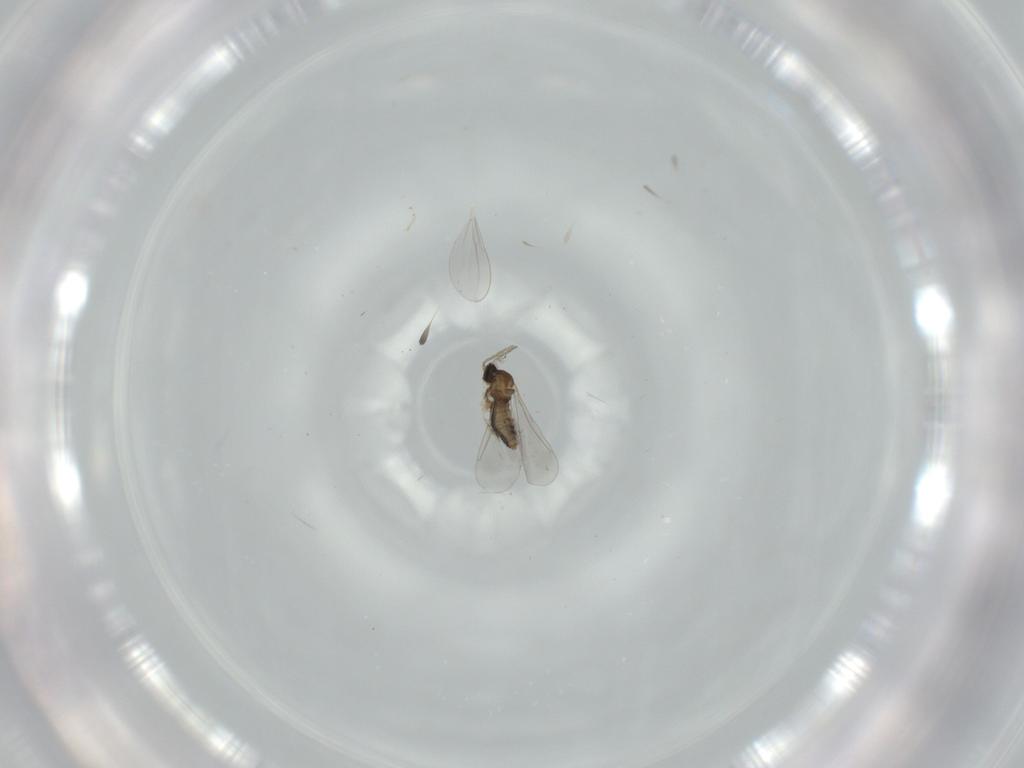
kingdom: Animalia
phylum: Arthropoda
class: Insecta
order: Diptera
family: Cecidomyiidae
